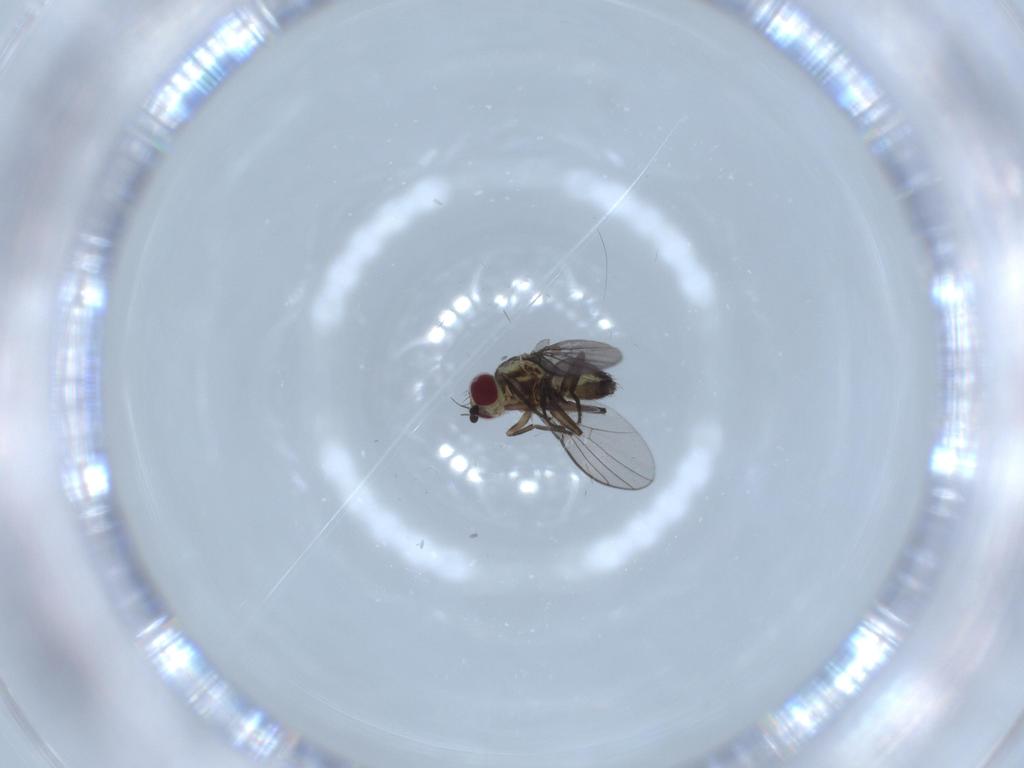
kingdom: Animalia
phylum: Arthropoda
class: Insecta
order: Diptera
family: Agromyzidae
